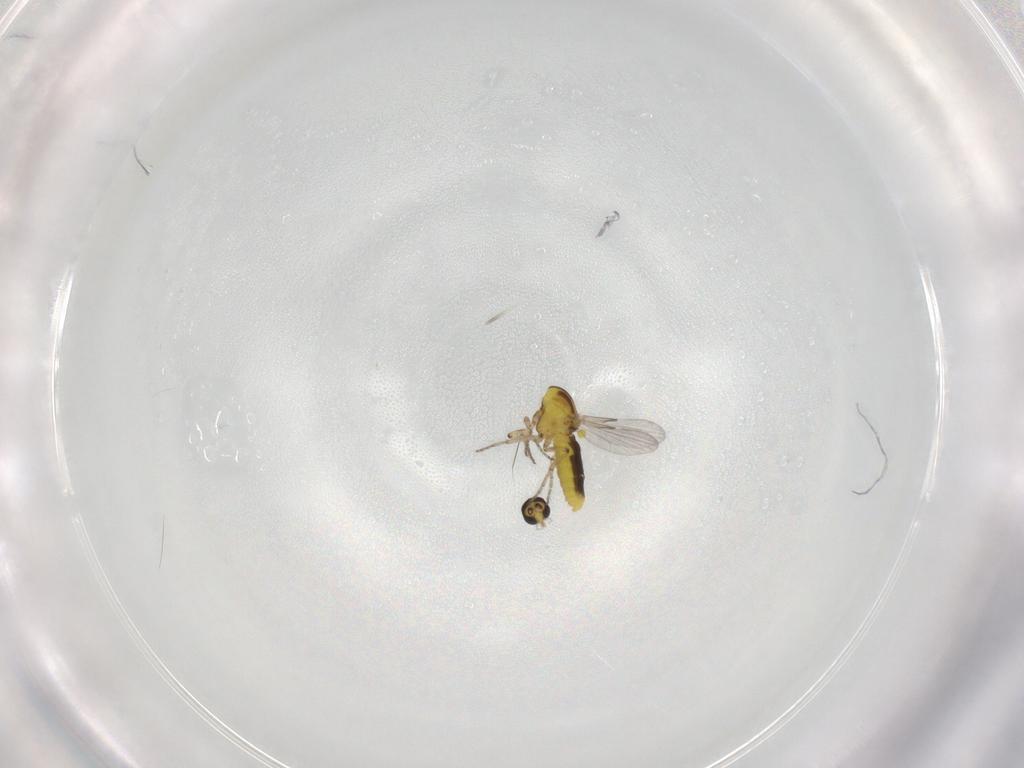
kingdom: Animalia
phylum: Arthropoda
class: Insecta
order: Diptera
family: Ceratopogonidae
